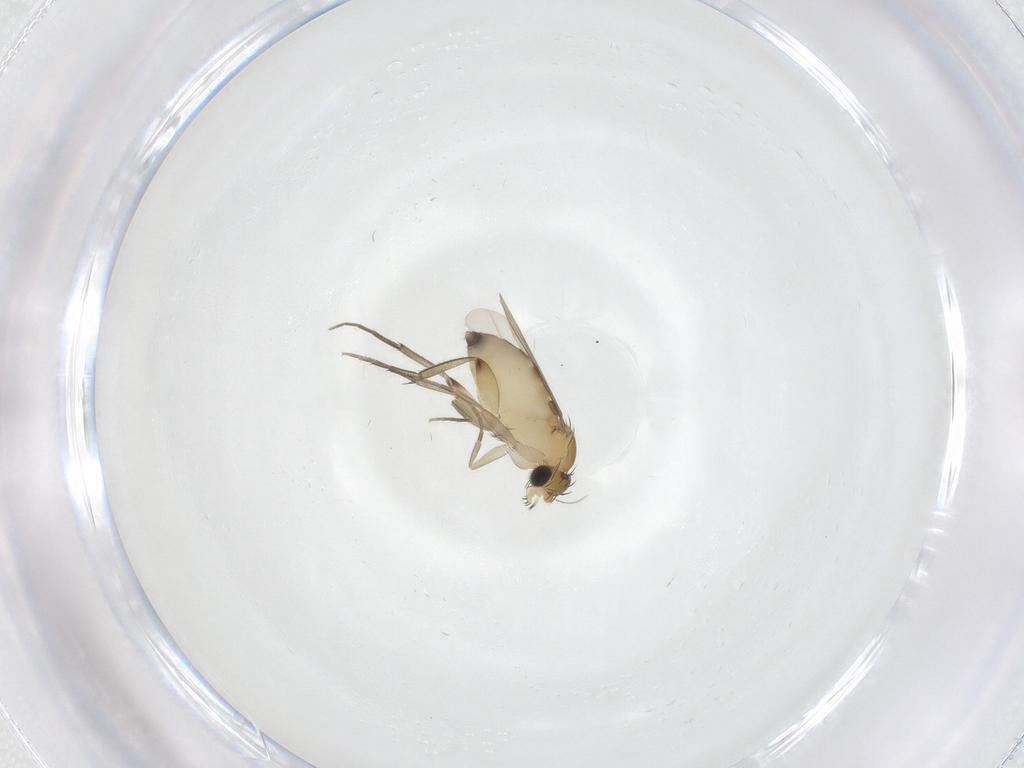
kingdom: Animalia
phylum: Arthropoda
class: Insecta
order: Diptera
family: Phoridae
